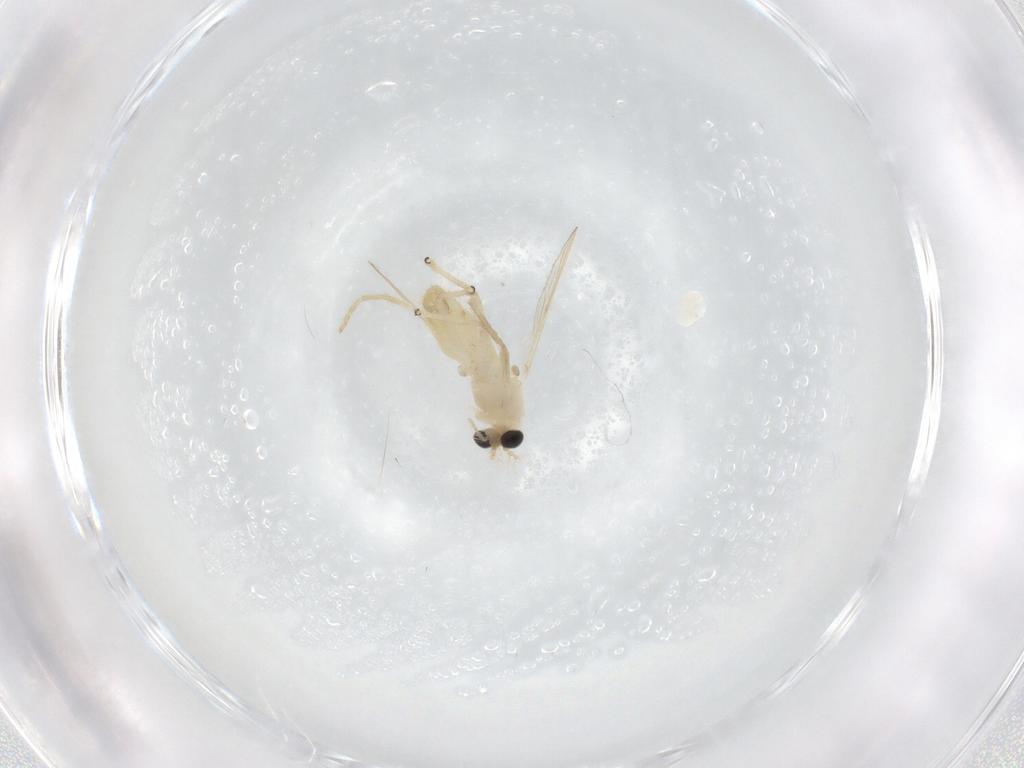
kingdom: Animalia
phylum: Arthropoda
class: Insecta
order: Diptera
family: Chironomidae
